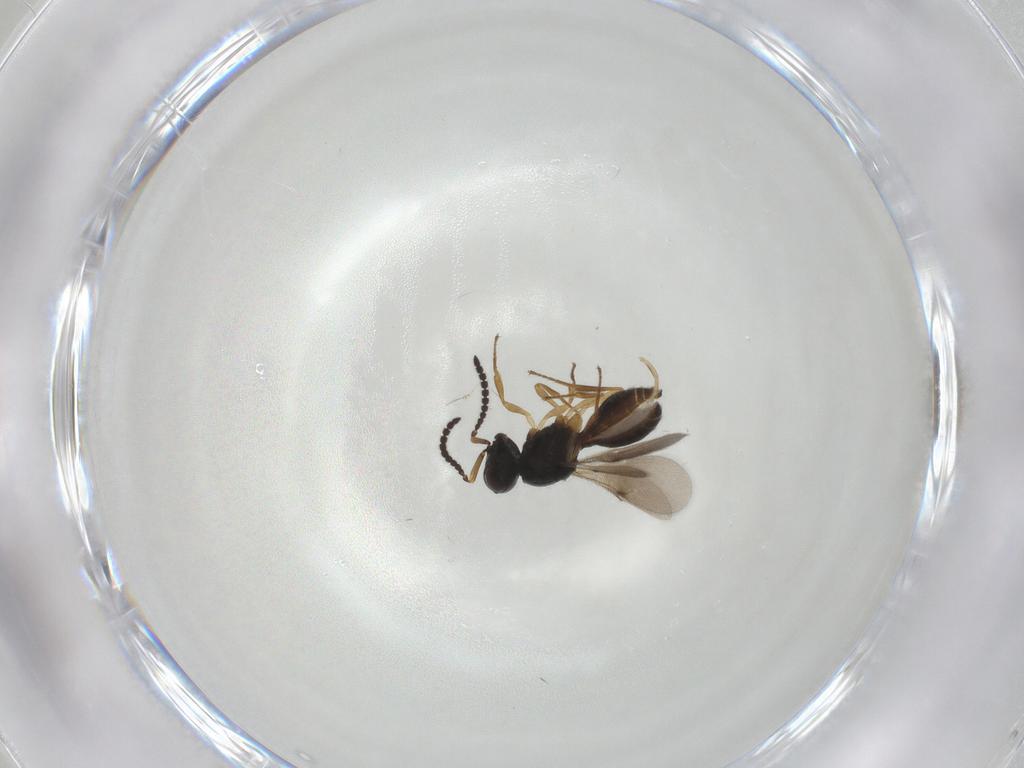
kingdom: Animalia
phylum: Arthropoda
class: Insecta
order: Hymenoptera
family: Scelionidae
